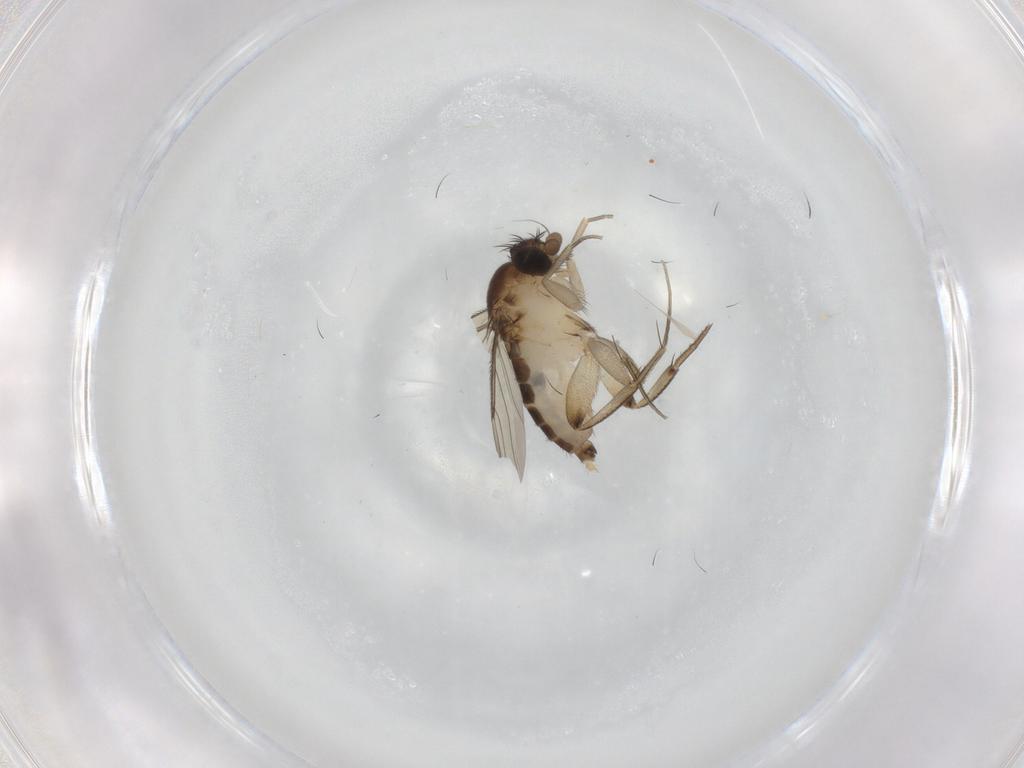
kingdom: Animalia
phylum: Arthropoda
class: Insecta
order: Diptera
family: Phoridae
